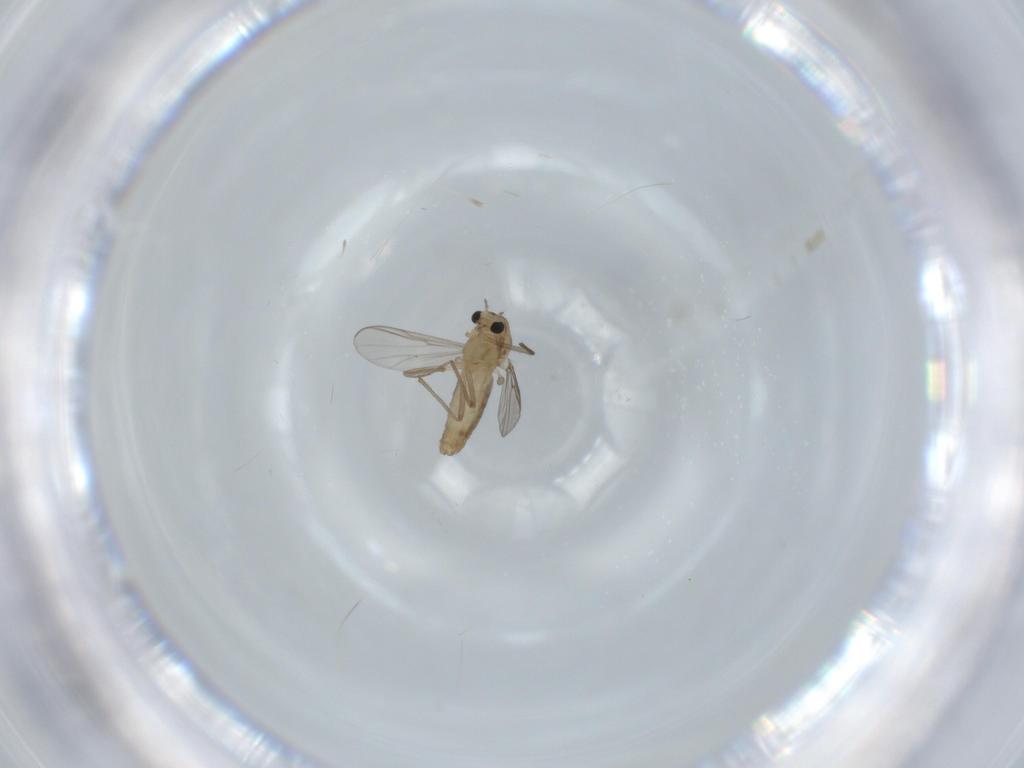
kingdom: Animalia
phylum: Arthropoda
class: Insecta
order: Diptera
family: Chironomidae
